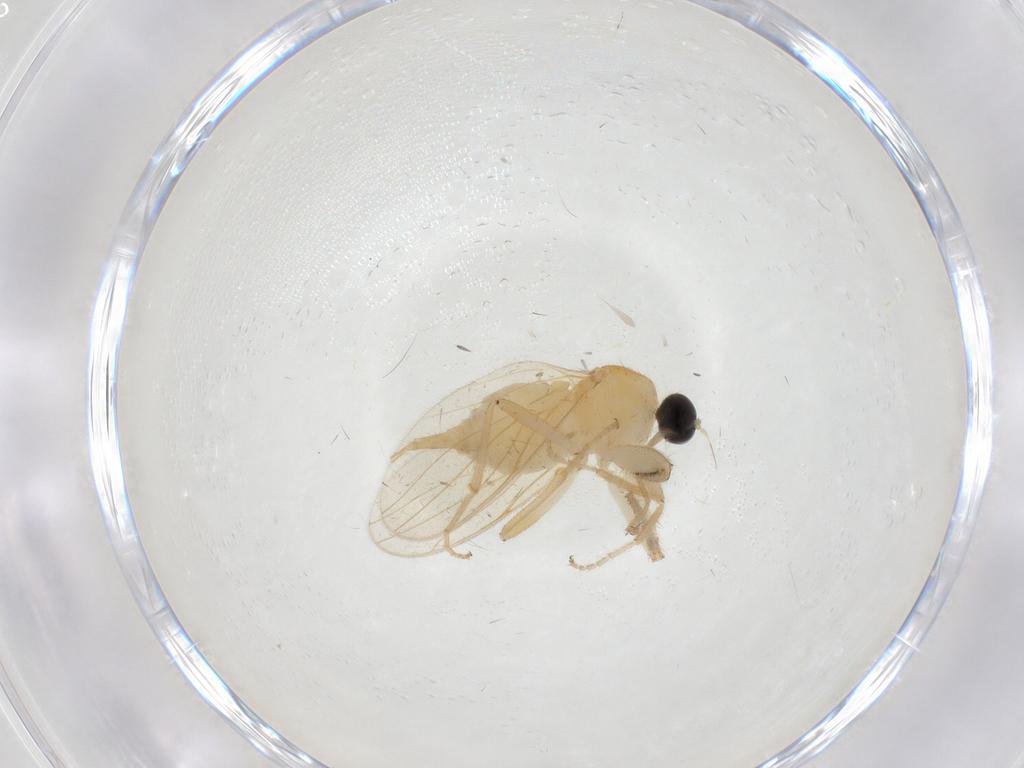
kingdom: Animalia
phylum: Arthropoda
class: Insecta
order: Diptera
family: Ceratopogonidae
